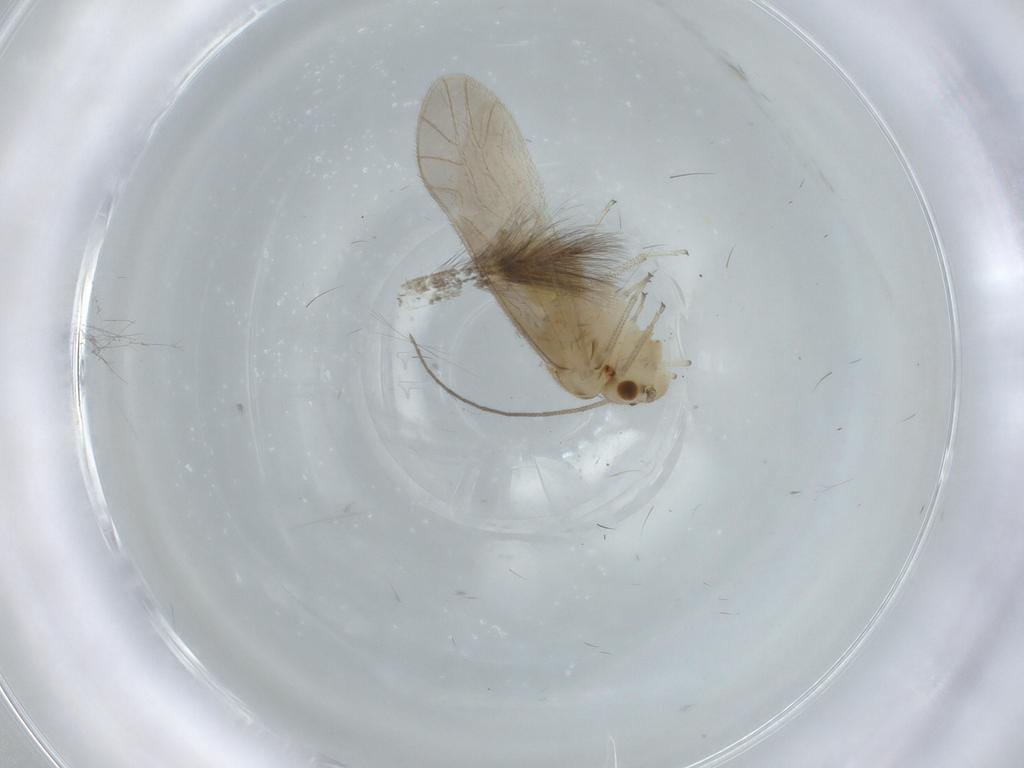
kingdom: Animalia
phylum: Arthropoda
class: Insecta
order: Psocodea
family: Caeciliusidae
